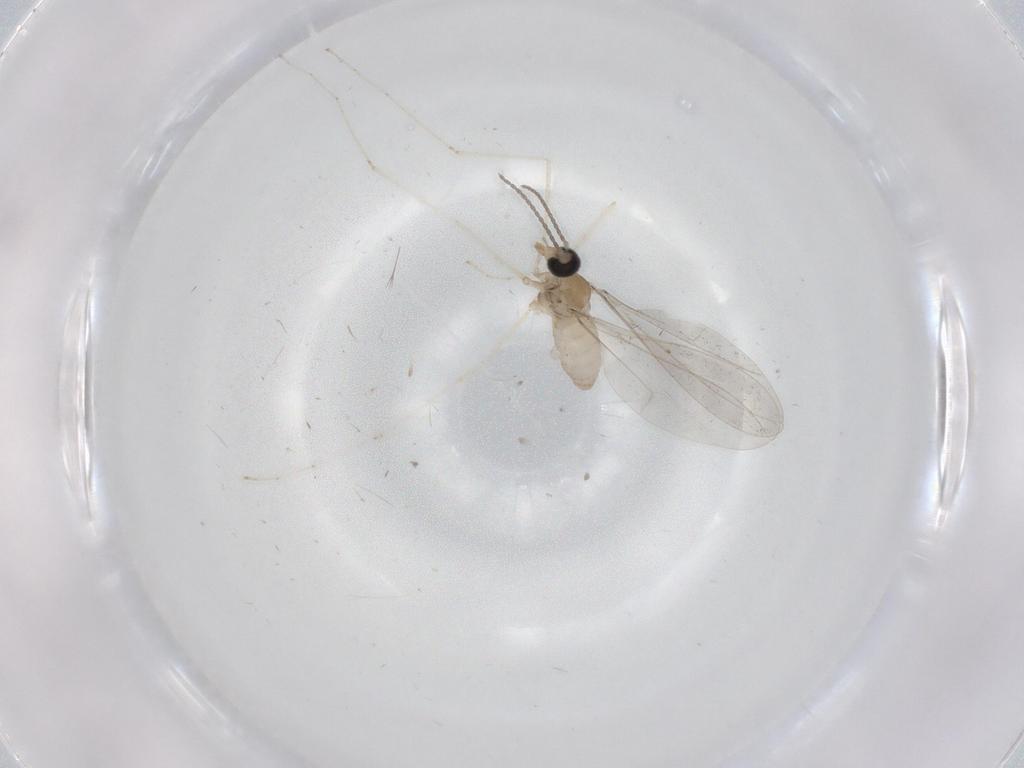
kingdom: Animalia
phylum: Arthropoda
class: Insecta
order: Diptera
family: Cecidomyiidae
